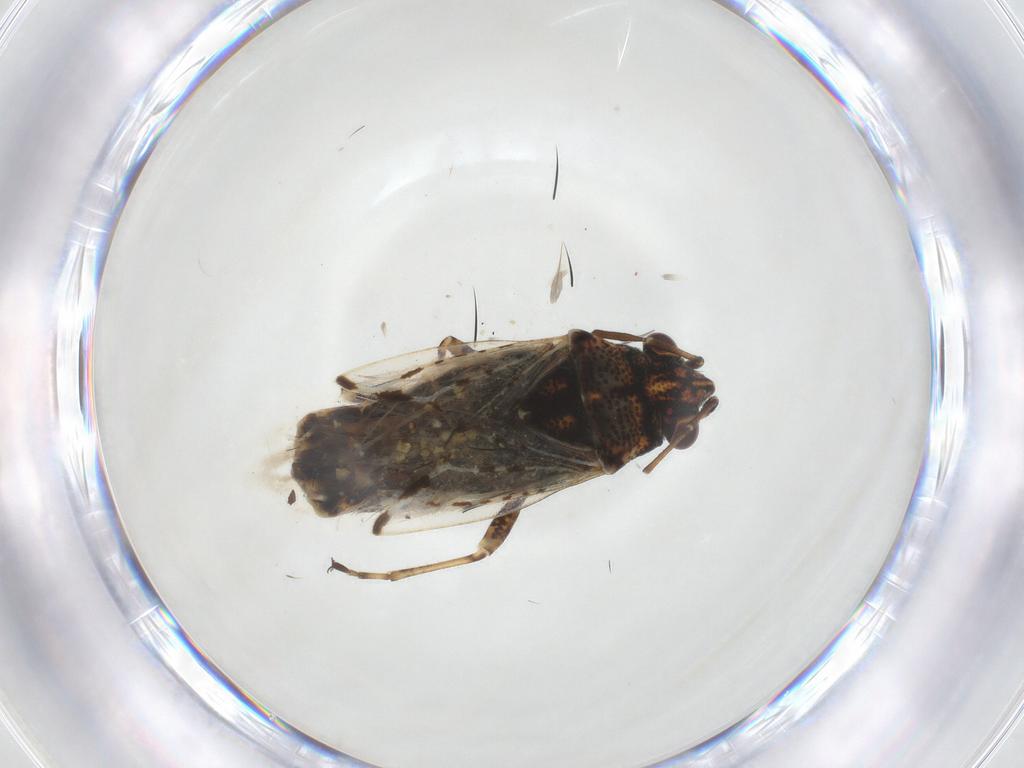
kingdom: Animalia
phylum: Arthropoda
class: Insecta
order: Hemiptera
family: Lygaeidae
